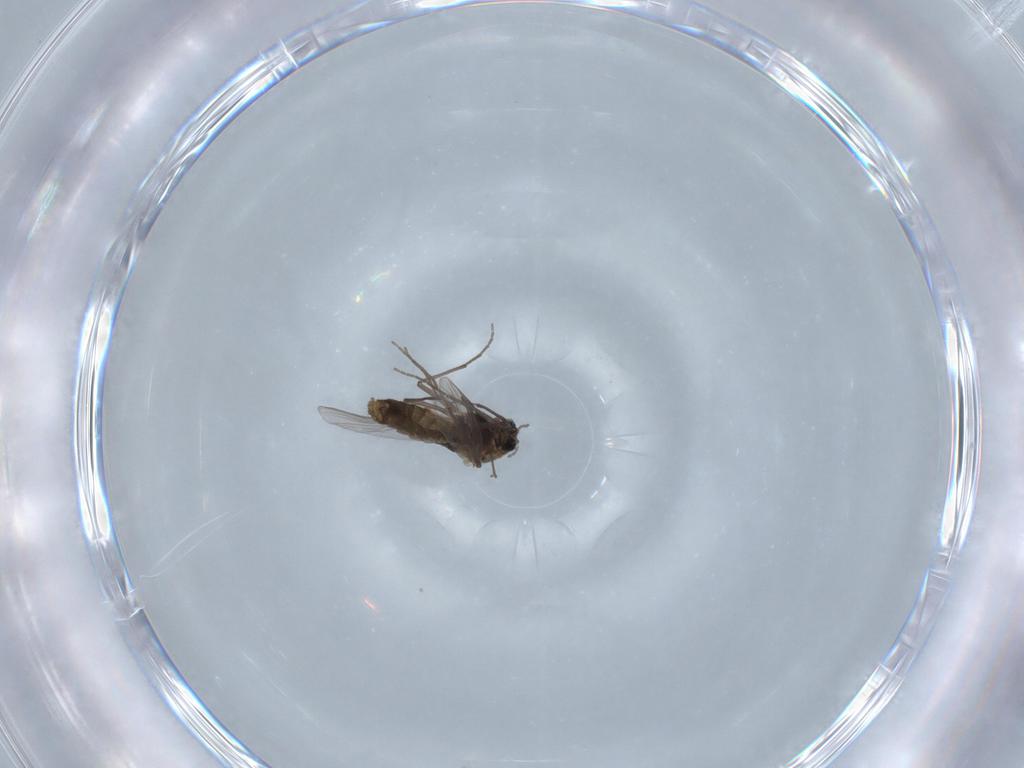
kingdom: Animalia
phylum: Arthropoda
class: Insecta
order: Diptera
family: Chironomidae
